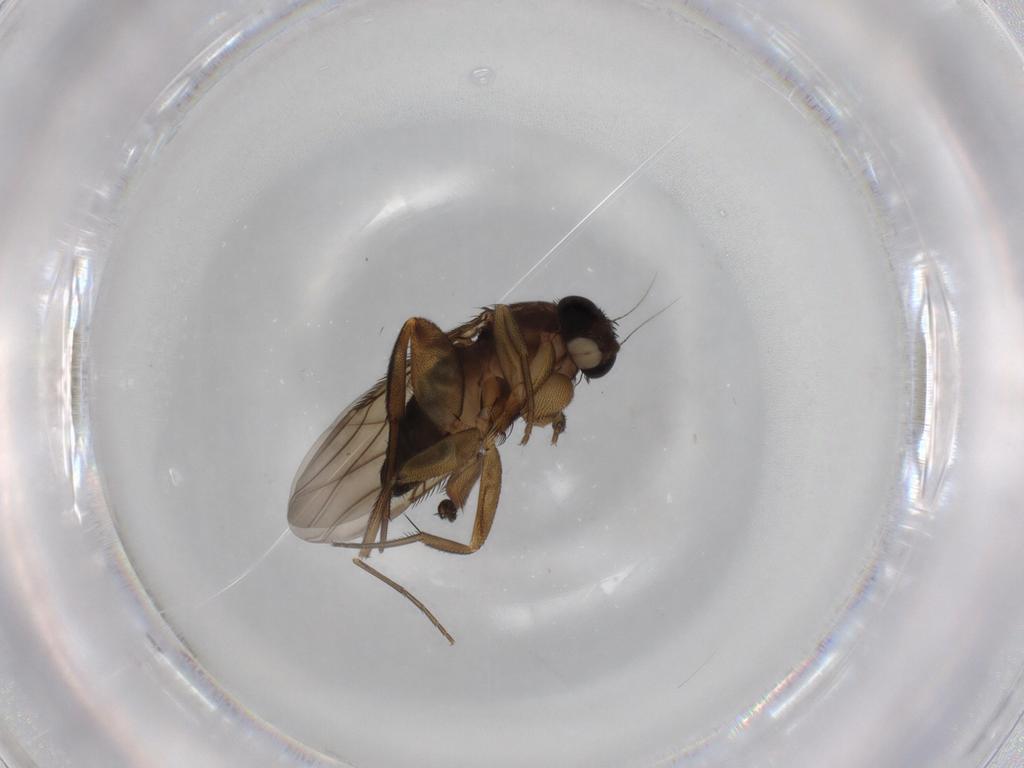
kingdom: Animalia
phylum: Arthropoda
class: Insecta
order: Diptera
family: Phoridae
